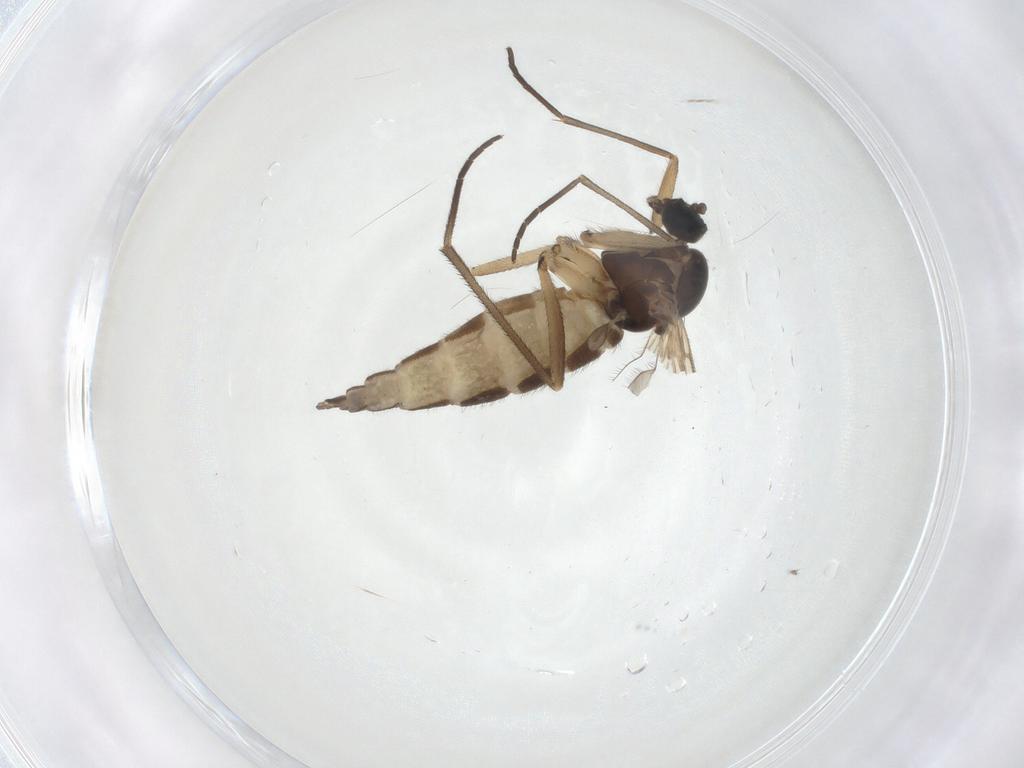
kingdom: Animalia
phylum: Arthropoda
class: Insecta
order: Diptera
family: Sciaridae
